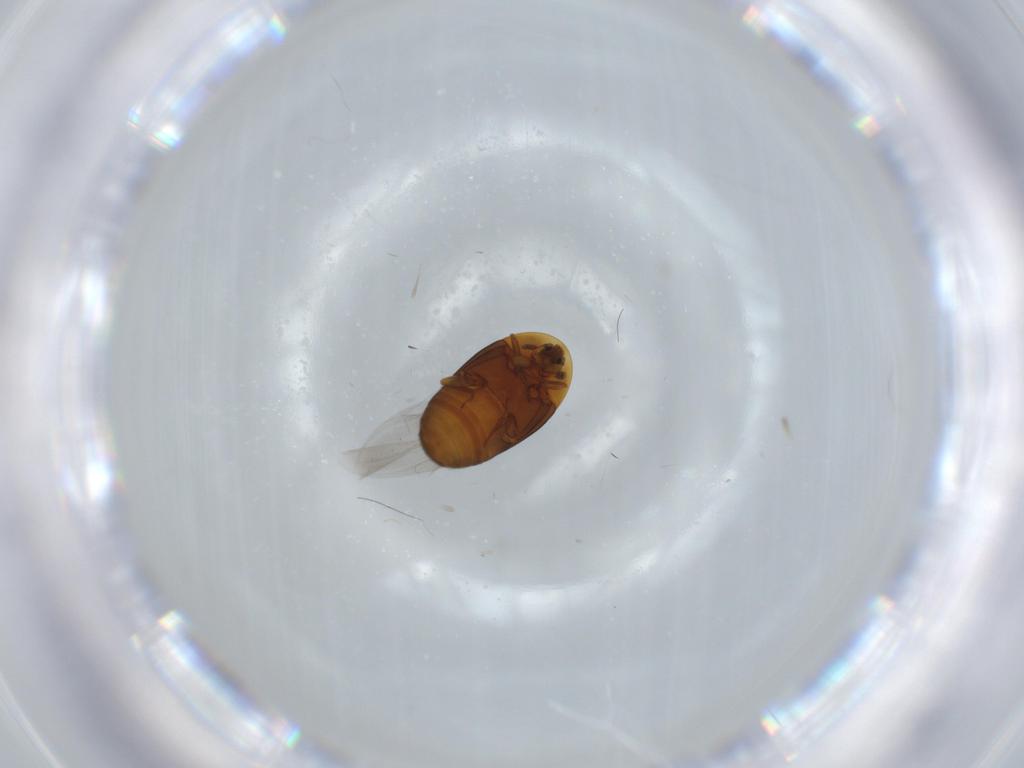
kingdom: Animalia
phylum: Arthropoda
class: Insecta
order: Coleoptera
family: Corylophidae
